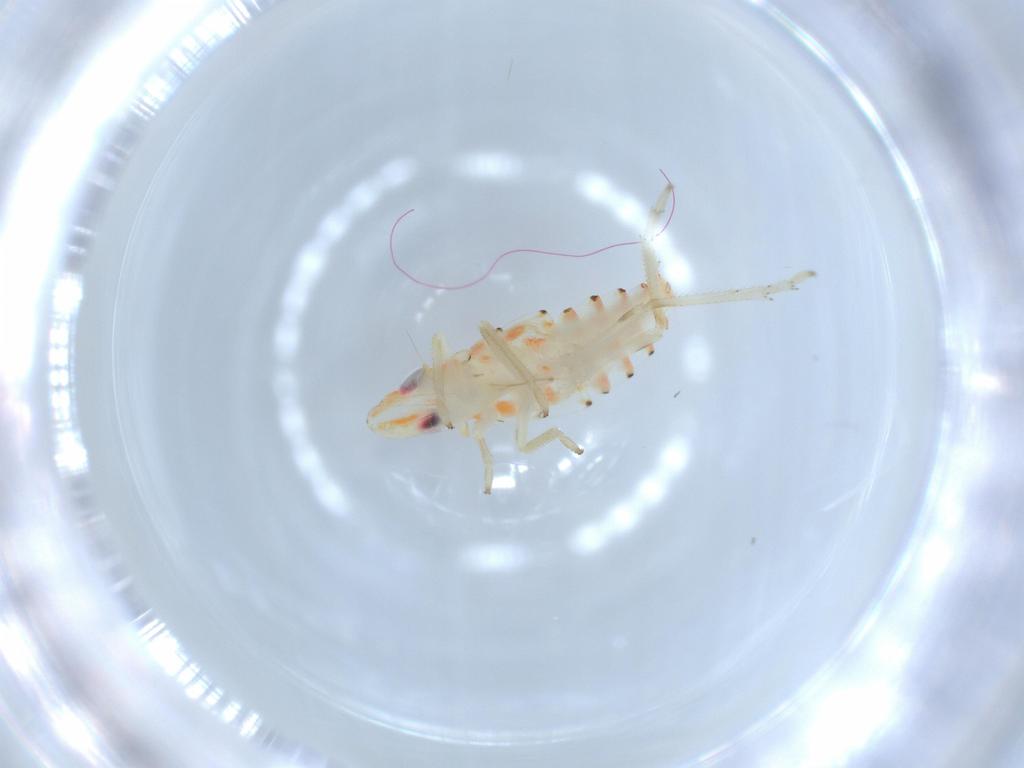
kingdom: Animalia
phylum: Arthropoda
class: Insecta
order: Hemiptera
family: Tropiduchidae
